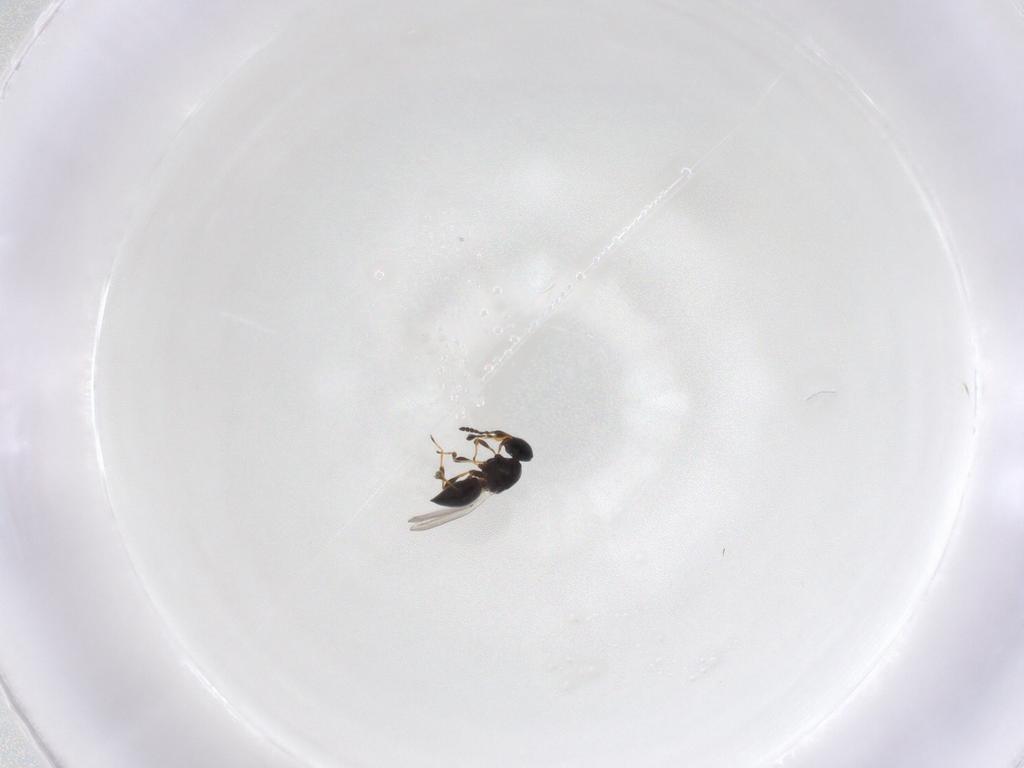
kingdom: Animalia
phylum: Arthropoda
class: Insecta
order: Hymenoptera
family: Platygastridae
